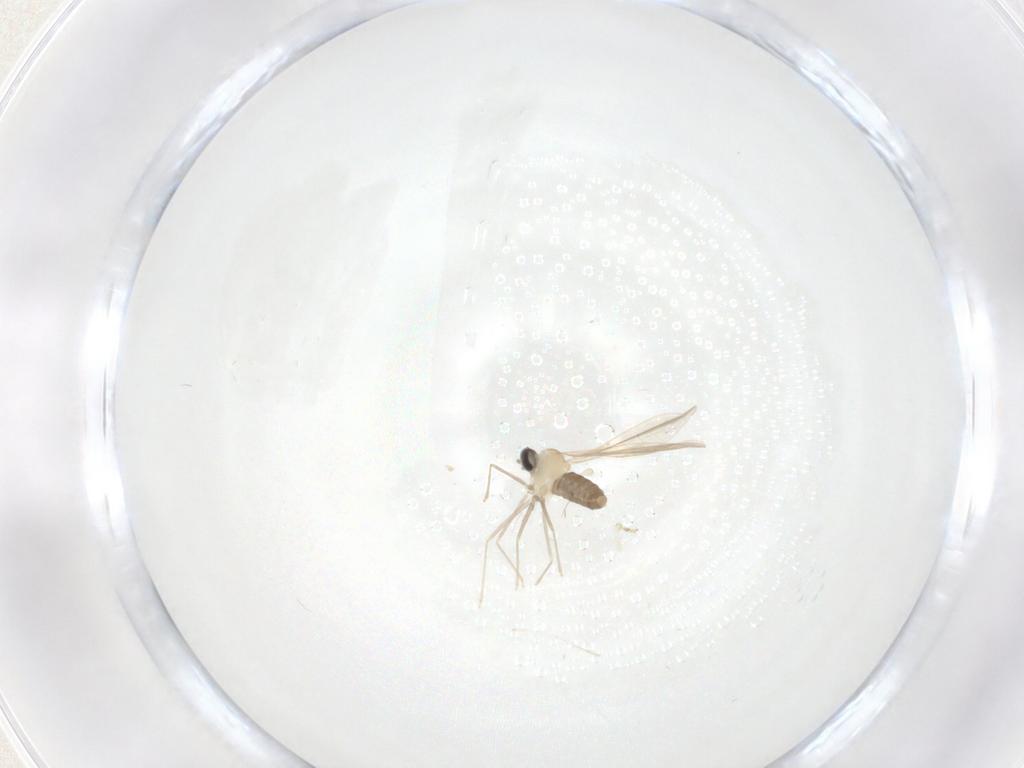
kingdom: Animalia
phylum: Arthropoda
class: Insecta
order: Diptera
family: Cecidomyiidae
